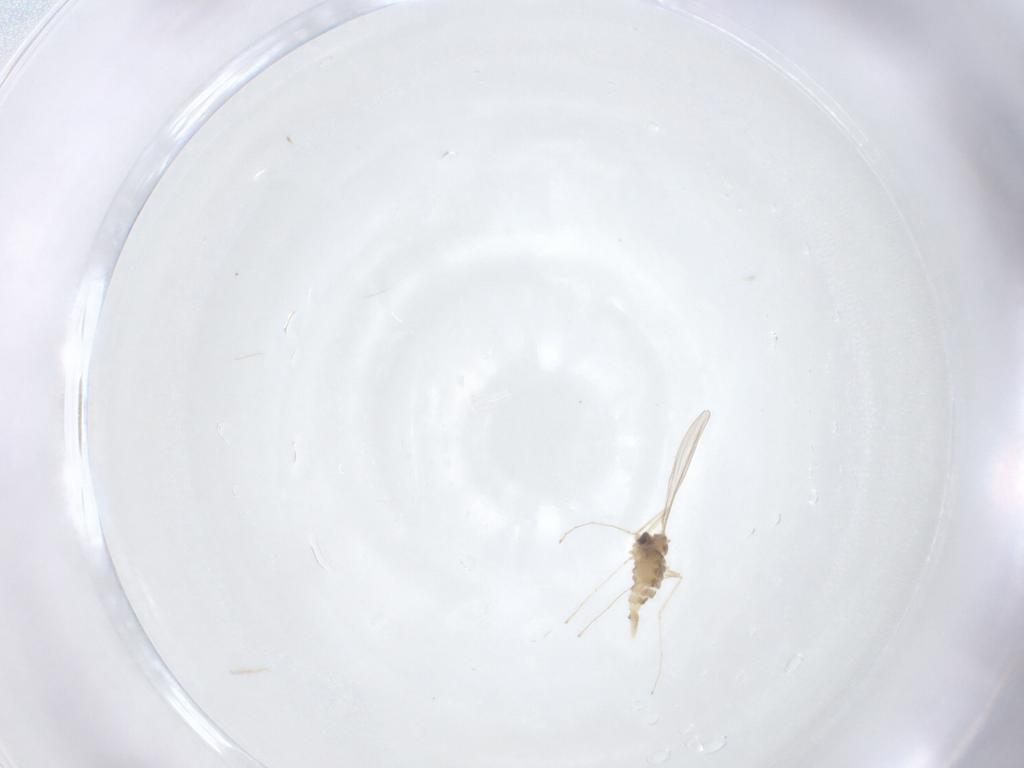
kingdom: Animalia
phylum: Arthropoda
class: Insecta
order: Diptera
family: Cecidomyiidae
